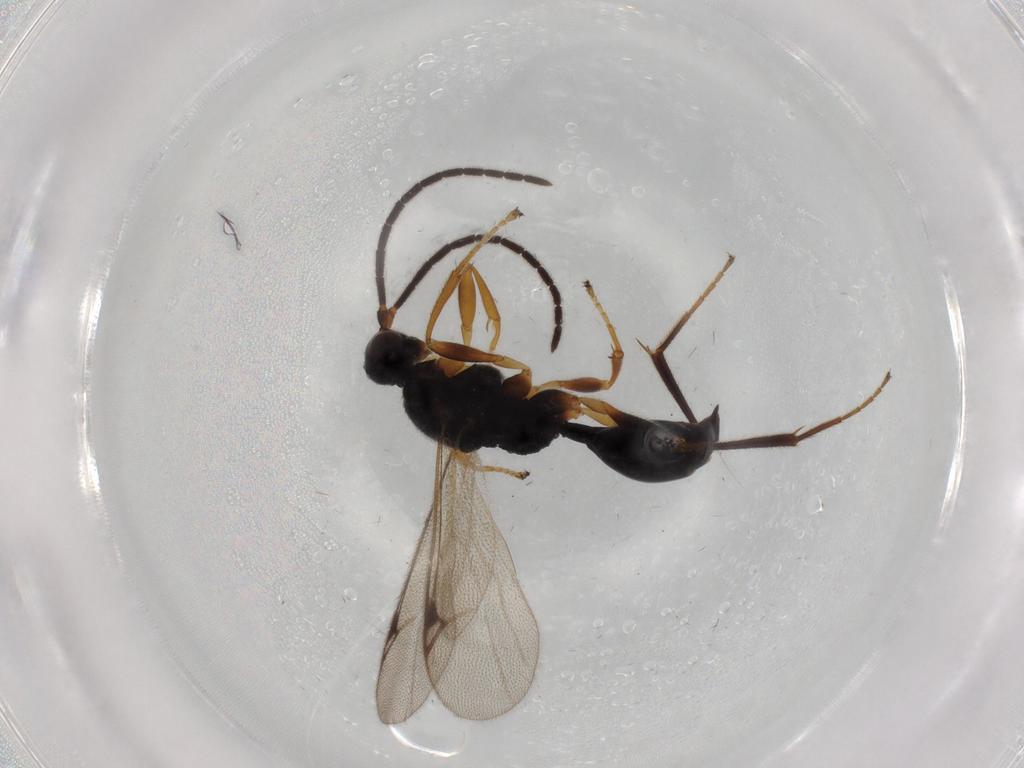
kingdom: Animalia
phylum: Arthropoda
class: Insecta
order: Hymenoptera
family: Proctotrupidae
